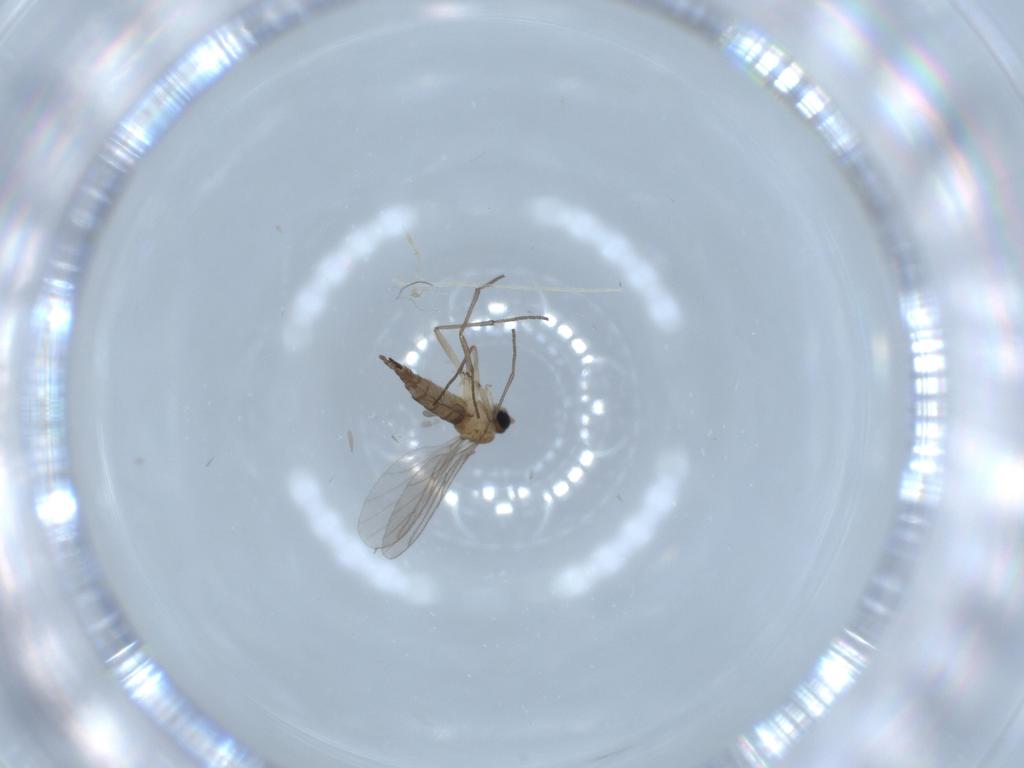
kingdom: Animalia
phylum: Arthropoda
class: Insecta
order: Diptera
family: Sciaridae
